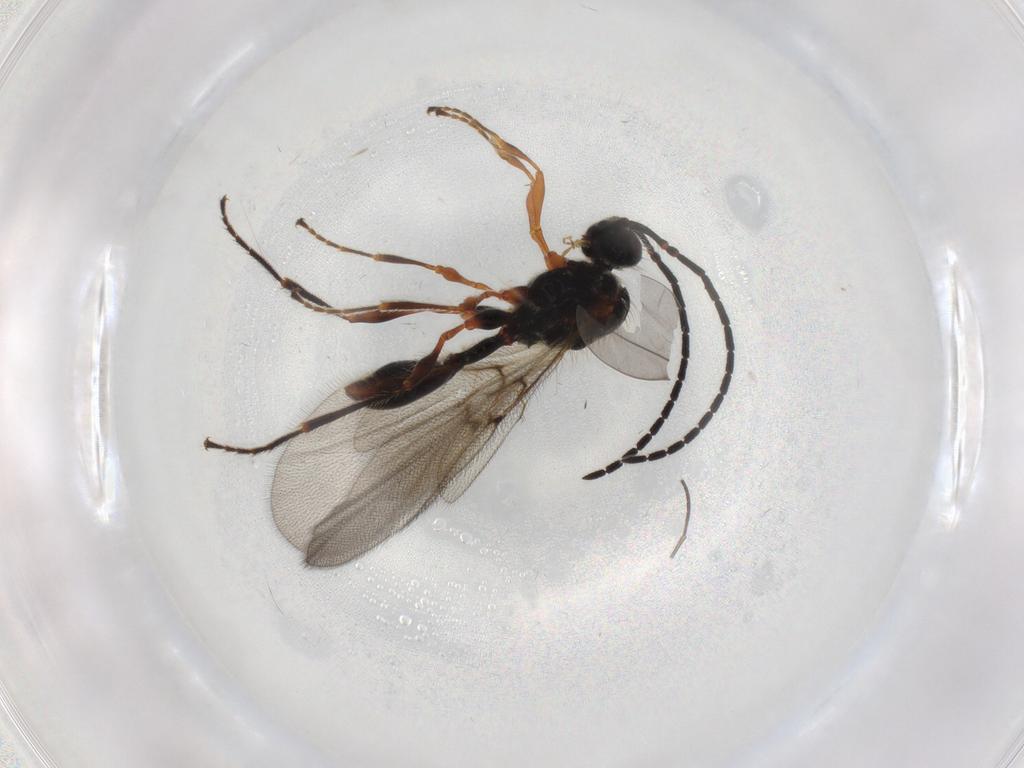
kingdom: Animalia
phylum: Arthropoda
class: Insecta
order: Hymenoptera
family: Diapriidae
